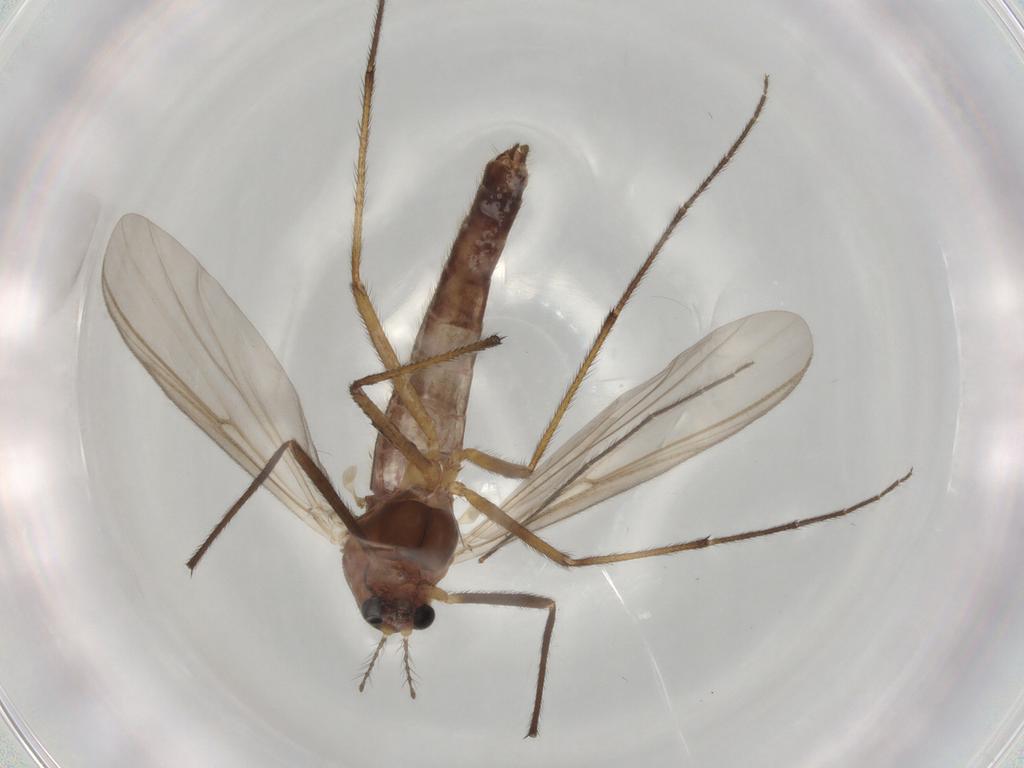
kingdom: Animalia
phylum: Arthropoda
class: Insecta
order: Diptera
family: Chironomidae
